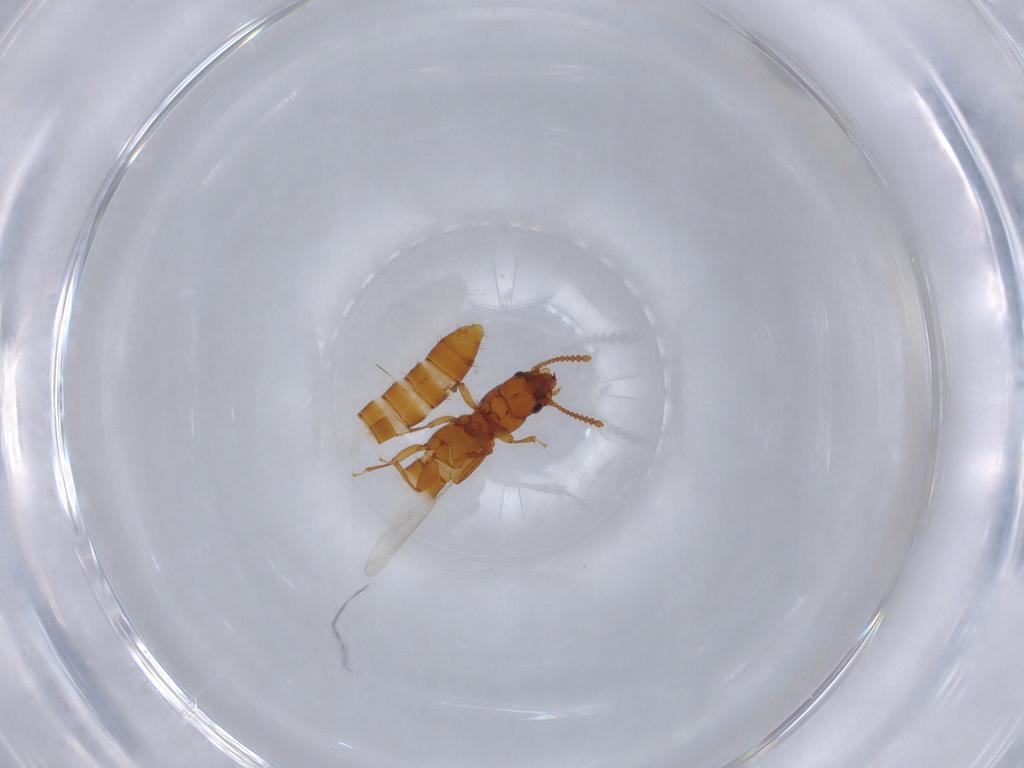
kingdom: Animalia
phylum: Arthropoda
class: Insecta
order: Coleoptera
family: Staphylinidae
